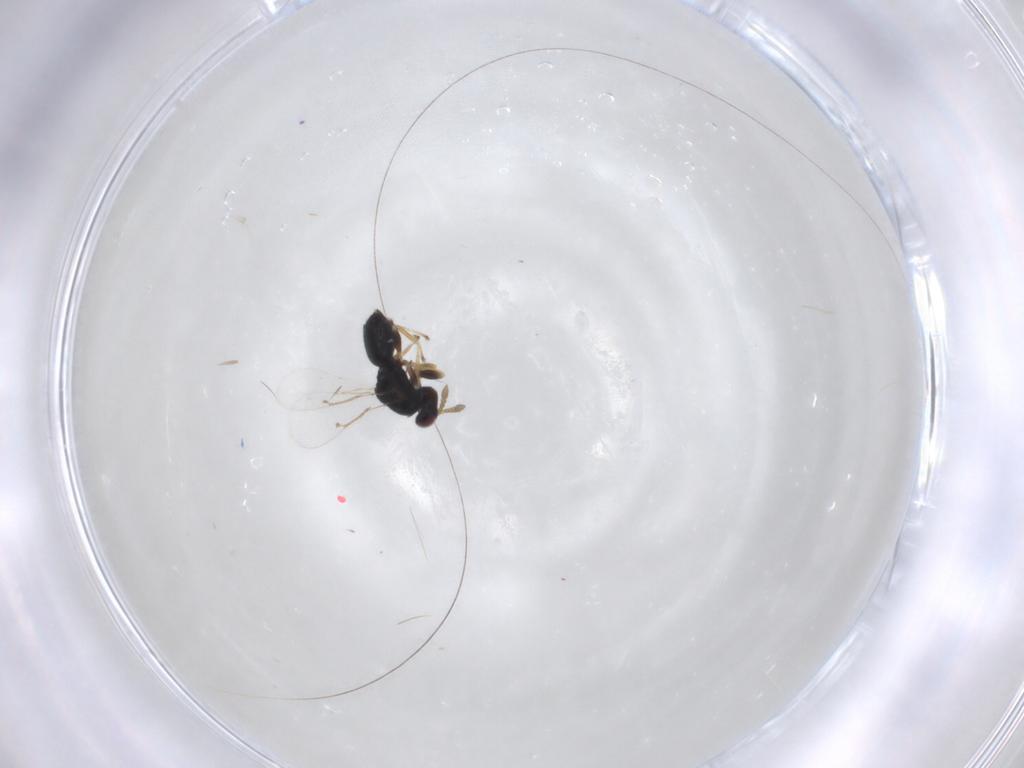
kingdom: Animalia
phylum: Arthropoda
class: Insecta
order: Hymenoptera
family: Eulophidae
